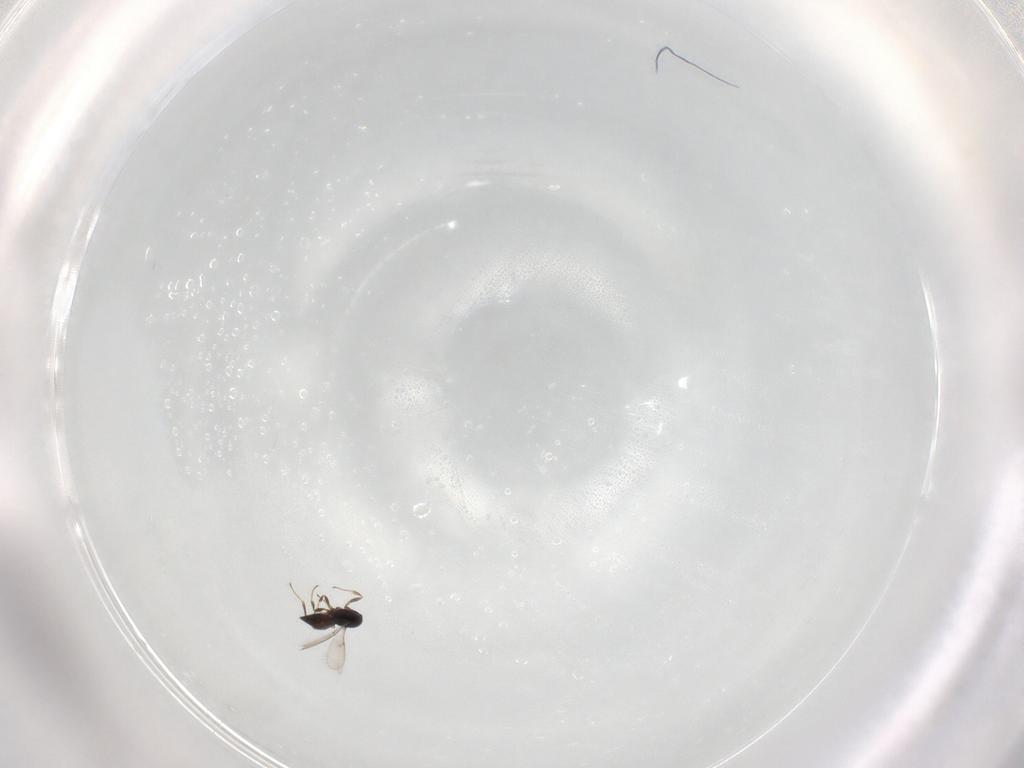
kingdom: Animalia
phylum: Arthropoda
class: Insecta
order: Hymenoptera
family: Scelionidae
